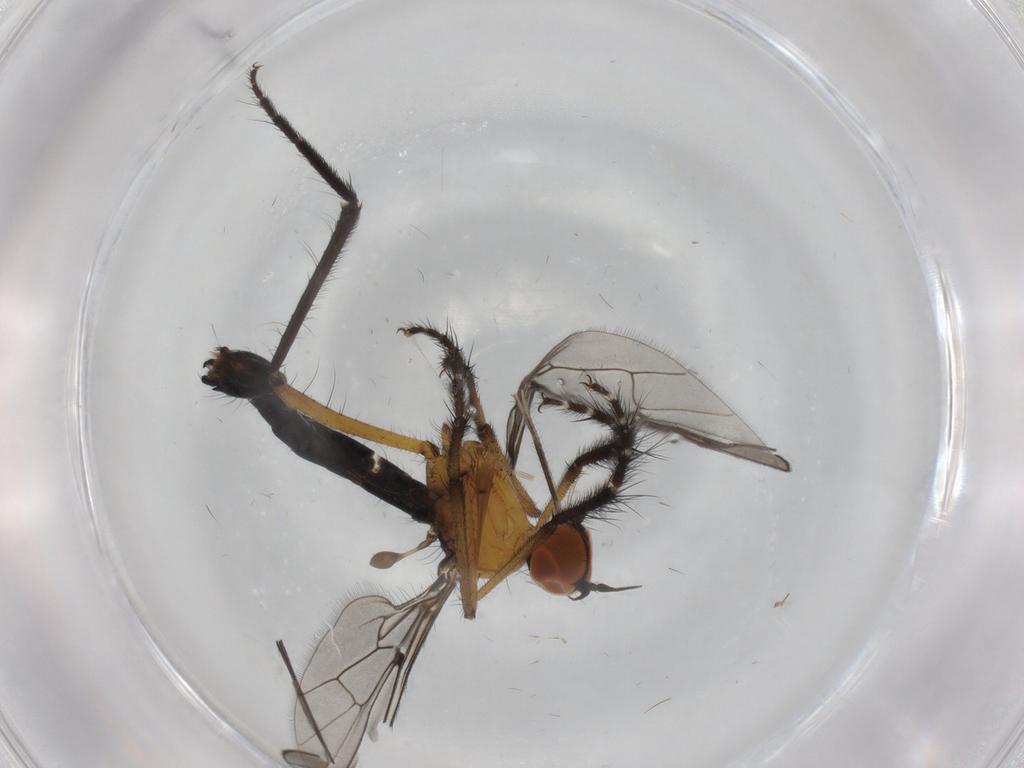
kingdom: Animalia
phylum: Arthropoda
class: Insecta
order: Diptera
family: Empididae
